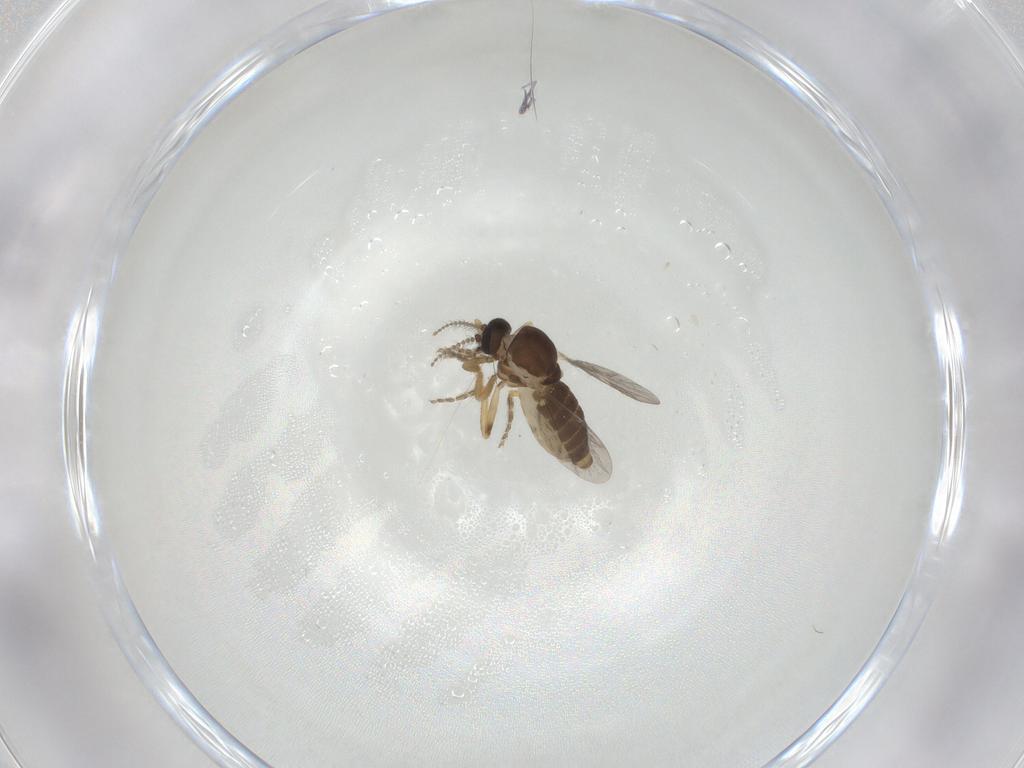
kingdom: Animalia
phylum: Arthropoda
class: Insecta
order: Diptera
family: Ceratopogonidae
